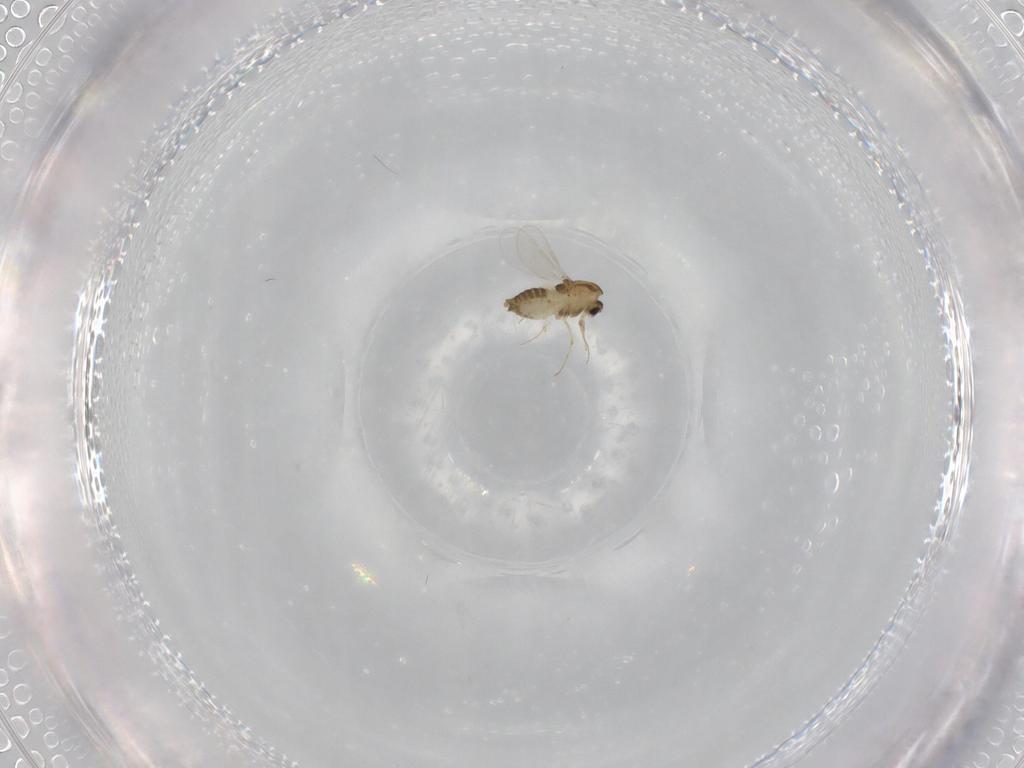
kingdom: Animalia
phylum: Arthropoda
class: Insecta
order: Diptera
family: Chironomidae
